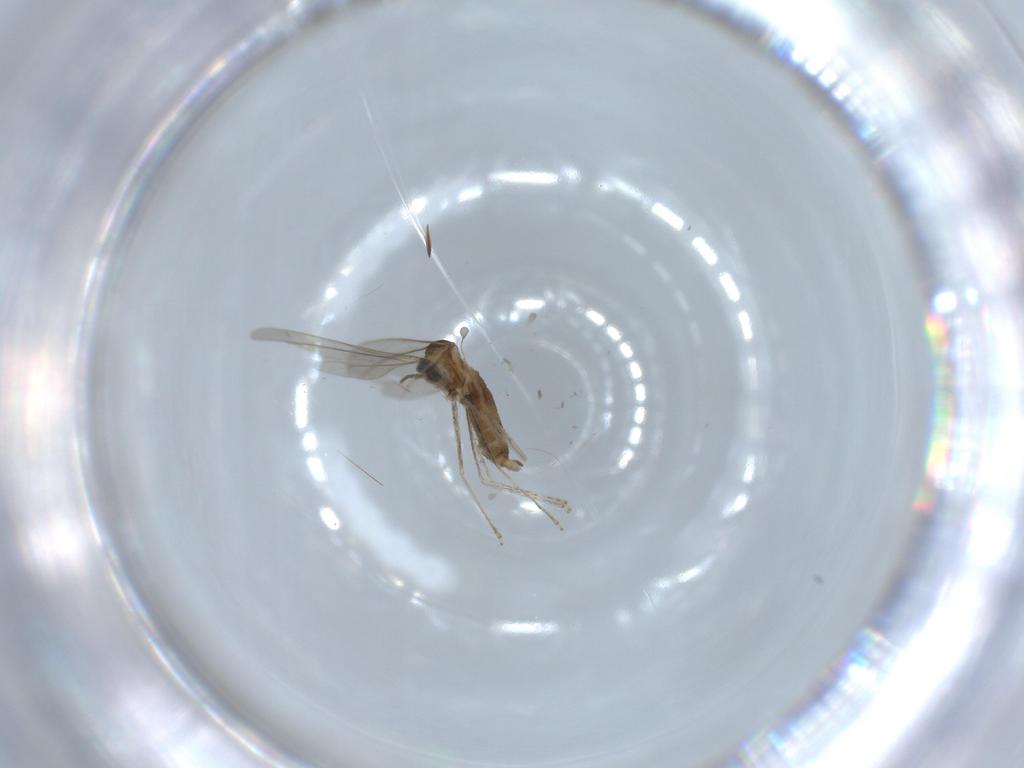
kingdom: Animalia
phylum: Arthropoda
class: Insecta
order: Diptera
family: Cecidomyiidae
